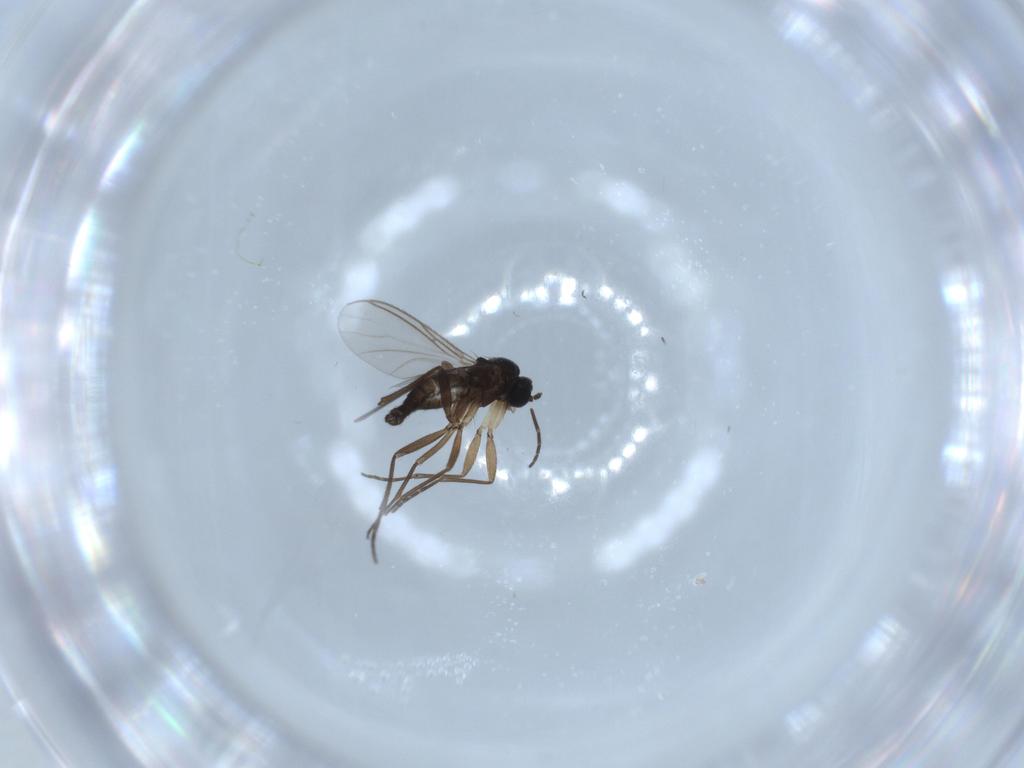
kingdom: Animalia
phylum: Arthropoda
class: Insecta
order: Diptera
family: Sciaridae
